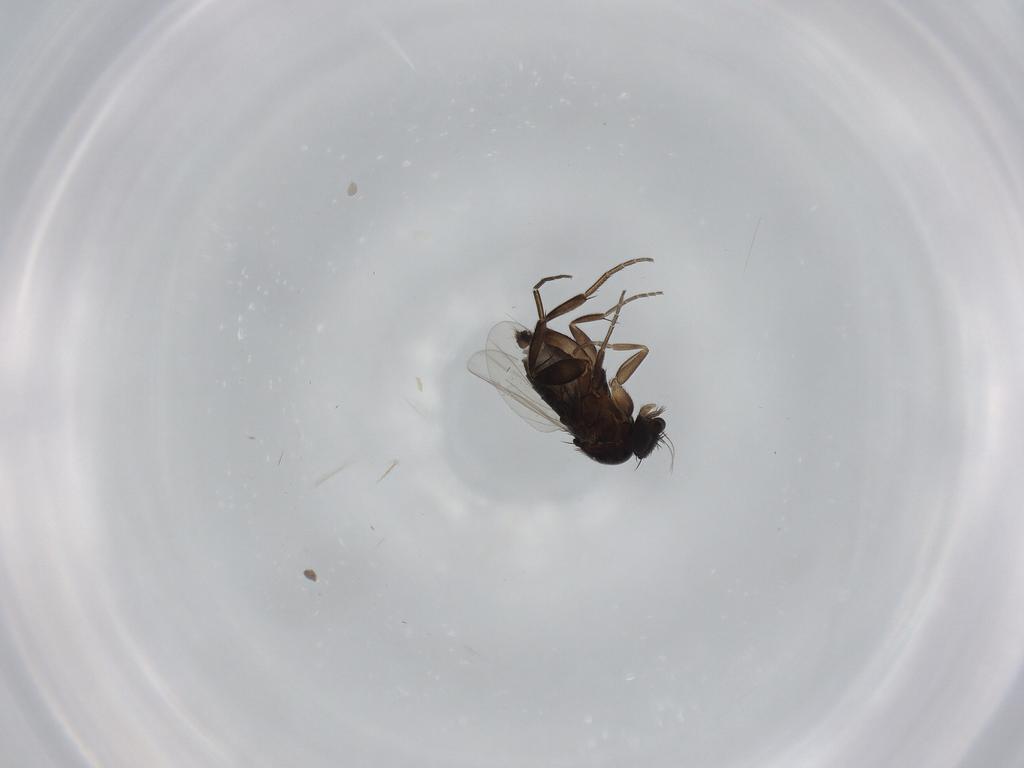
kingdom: Animalia
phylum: Arthropoda
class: Insecta
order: Diptera
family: Phoridae
